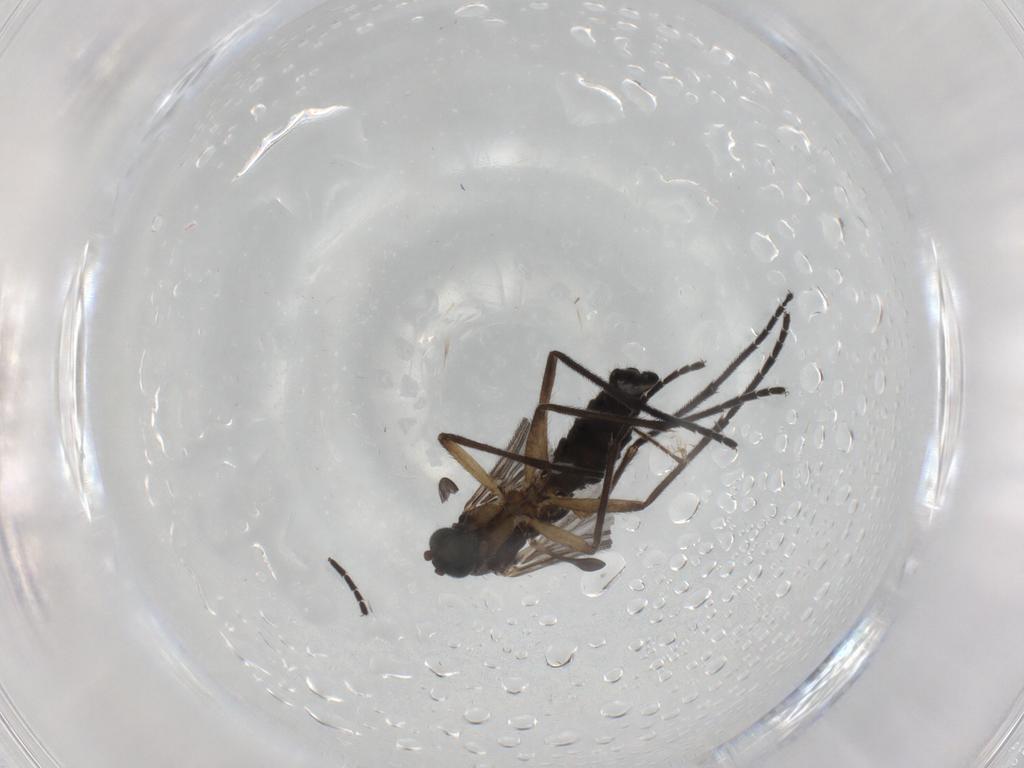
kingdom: Animalia
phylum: Arthropoda
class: Insecta
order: Diptera
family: Sciaridae
